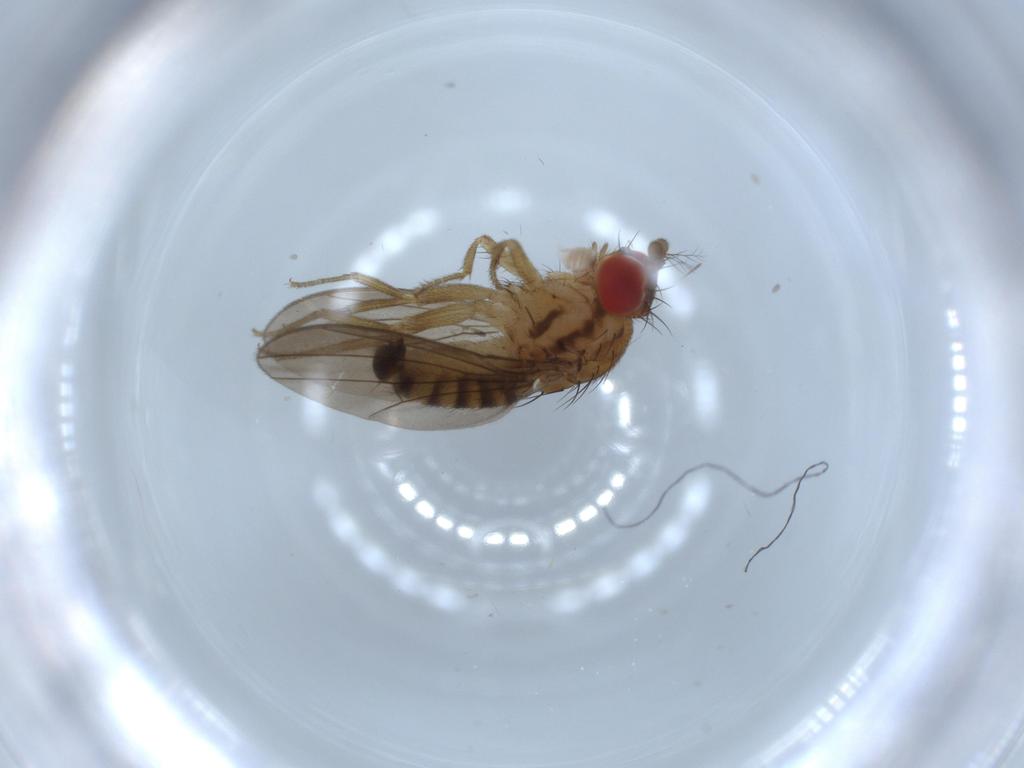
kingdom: Animalia
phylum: Arthropoda
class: Insecta
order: Diptera
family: Drosophilidae
